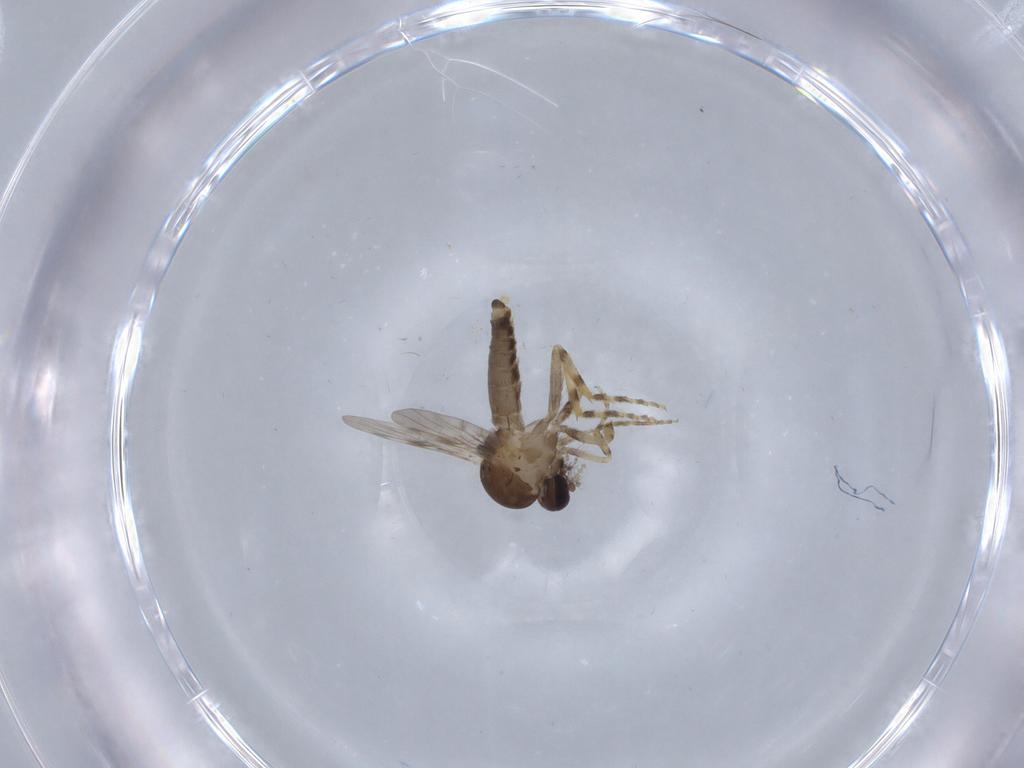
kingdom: Animalia
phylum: Arthropoda
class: Insecta
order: Diptera
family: Ceratopogonidae
